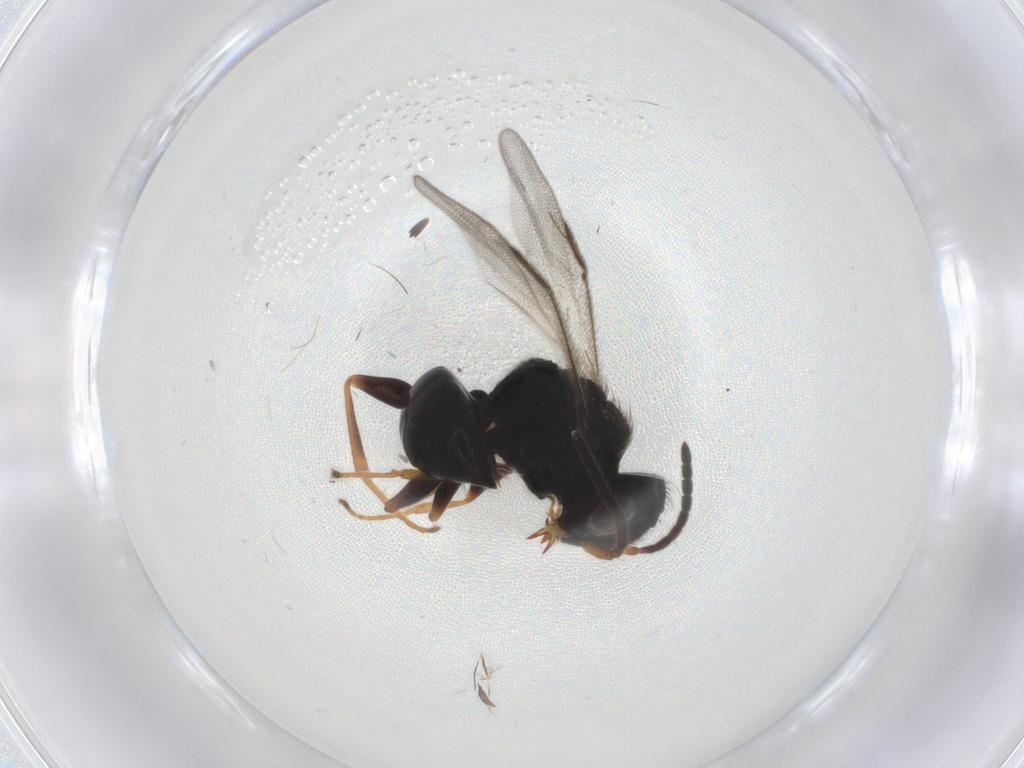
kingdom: Animalia
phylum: Arthropoda
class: Insecta
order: Hymenoptera
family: Dryinidae
